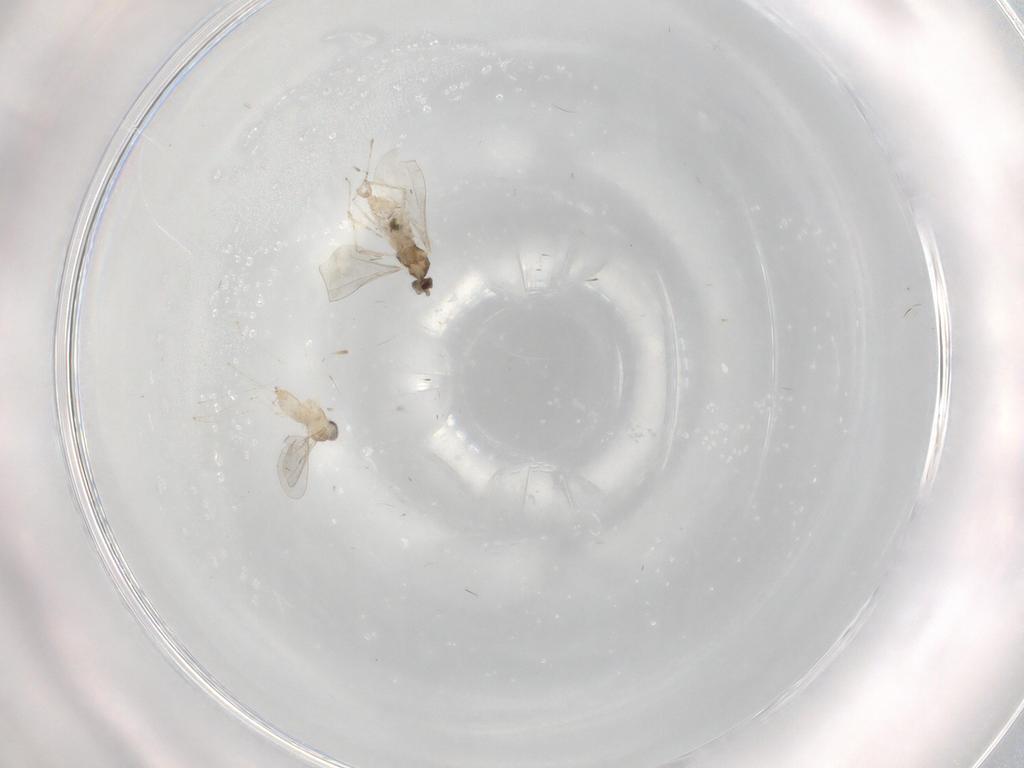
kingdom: Animalia
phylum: Arthropoda
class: Insecta
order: Diptera
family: Cecidomyiidae
